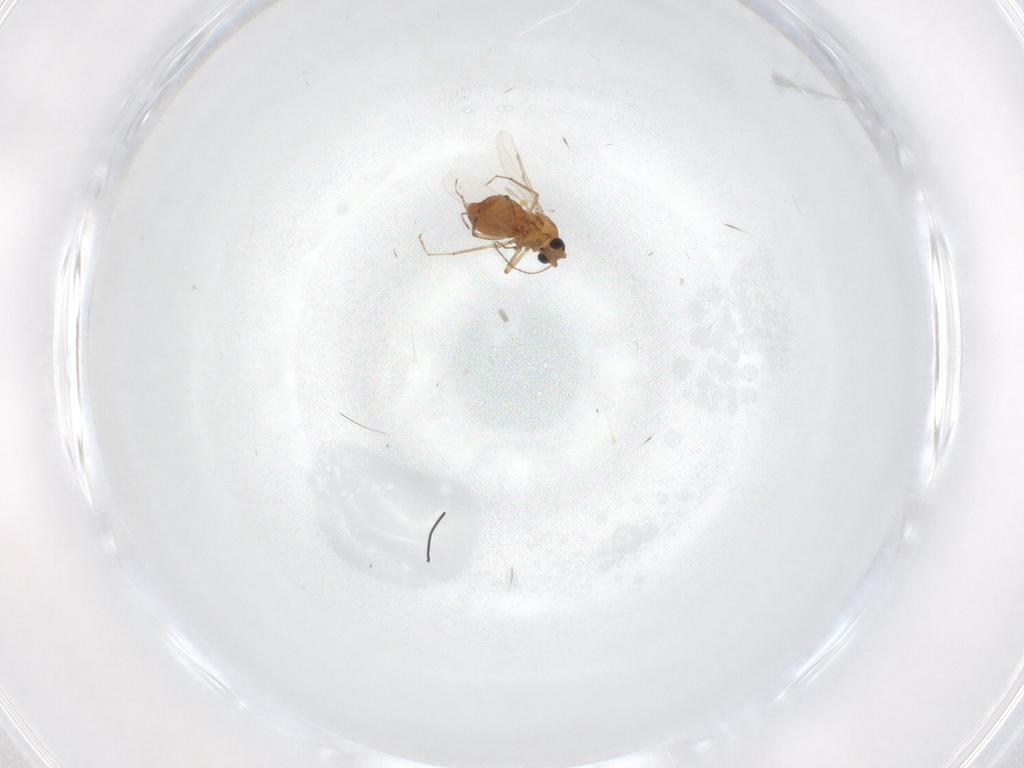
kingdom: Animalia
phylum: Arthropoda
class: Insecta
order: Diptera
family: Ceratopogonidae
